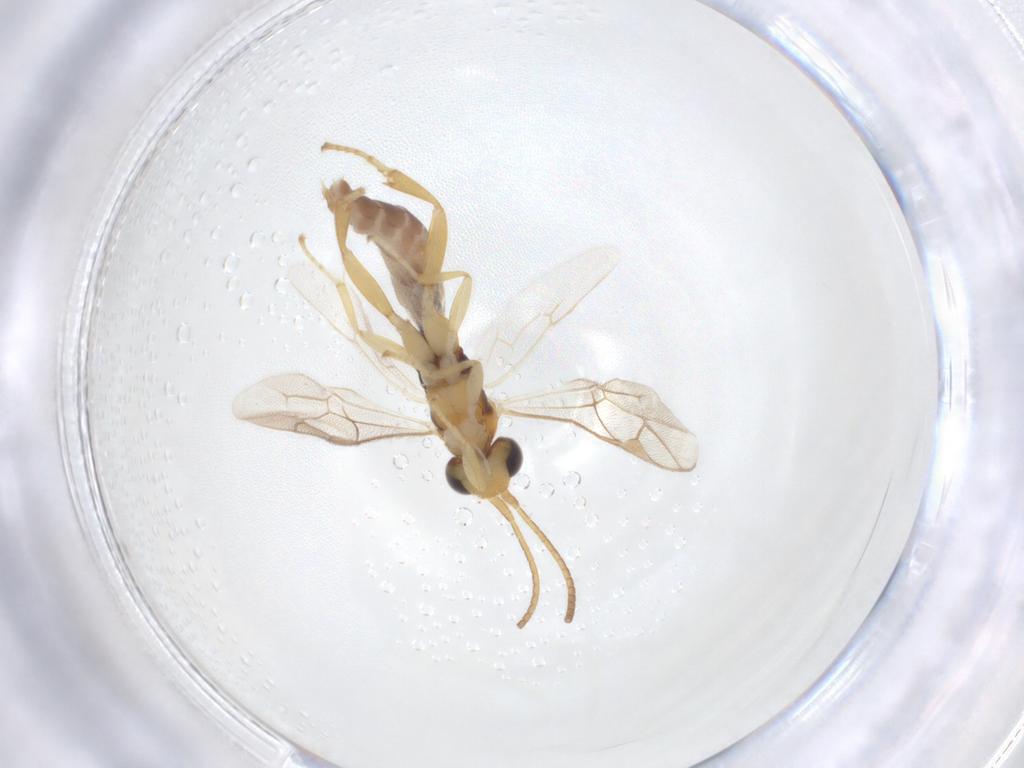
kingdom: Animalia
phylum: Arthropoda
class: Insecta
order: Hymenoptera
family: Ichneumonidae
